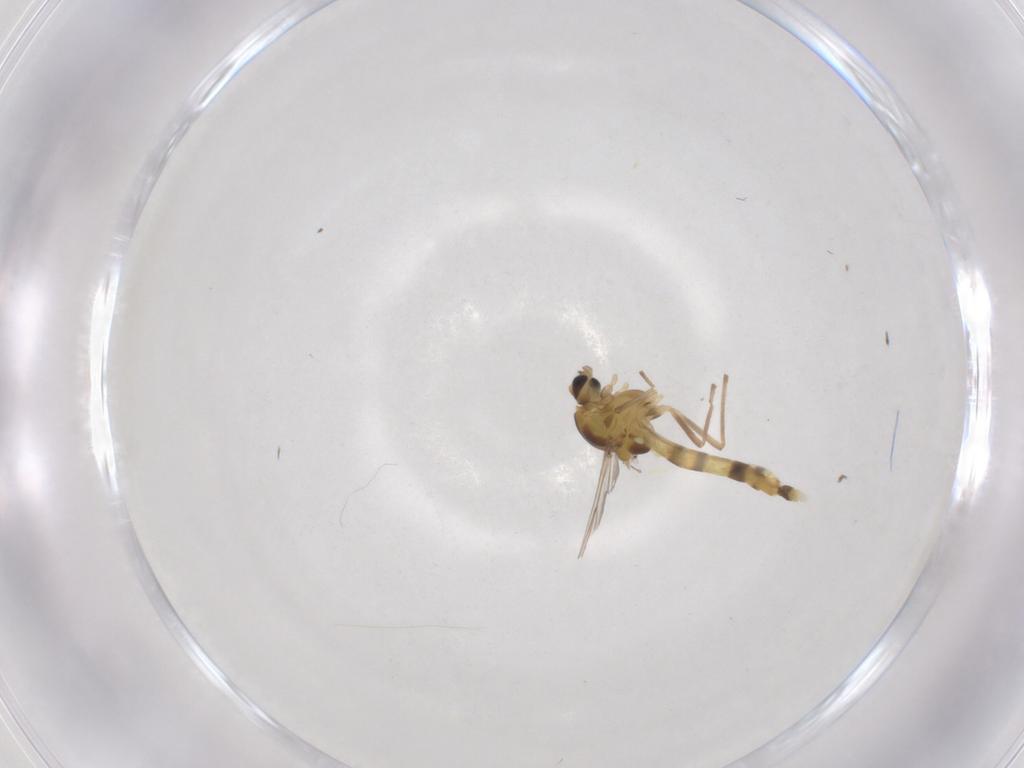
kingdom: Animalia
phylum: Arthropoda
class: Insecta
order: Diptera
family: Chironomidae
